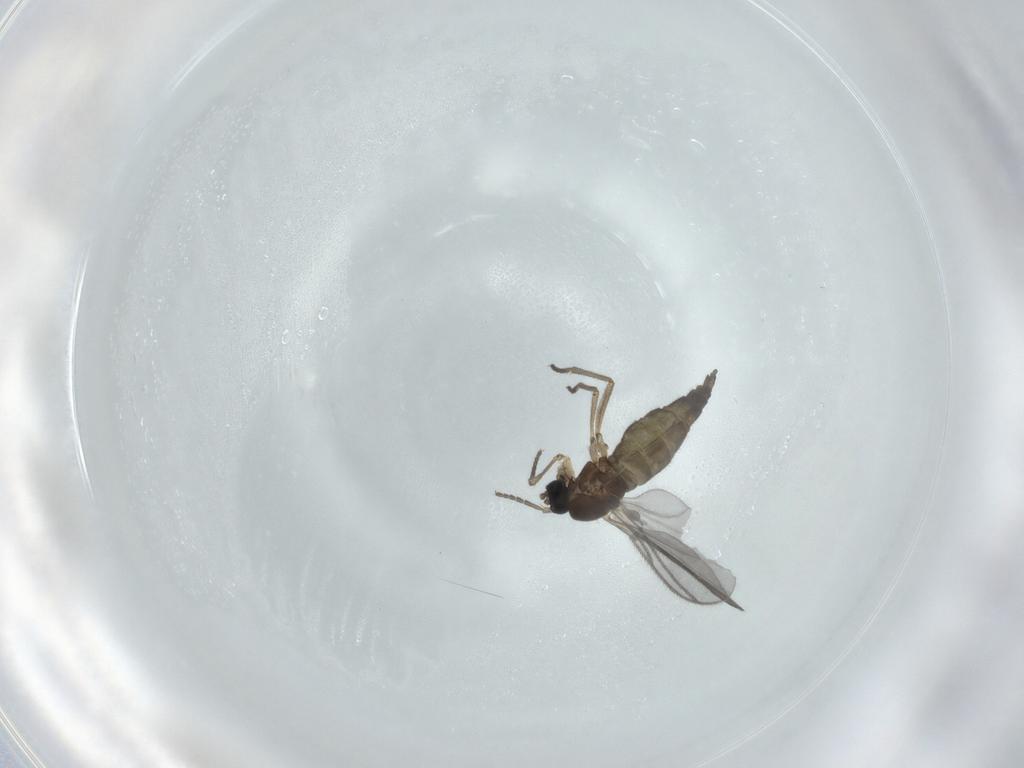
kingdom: Animalia
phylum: Arthropoda
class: Insecta
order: Diptera
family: Sciaridae
